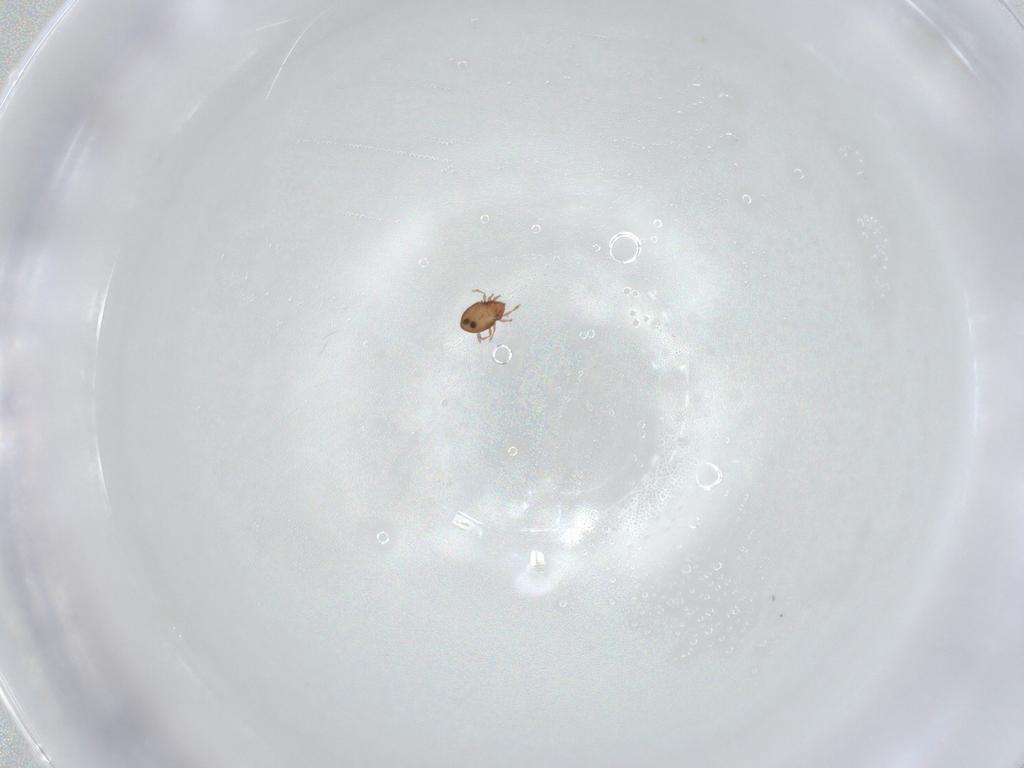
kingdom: Animalia
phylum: Arthropoda
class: Arachnida
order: Sarcoptiformes
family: Scheloribatidae
